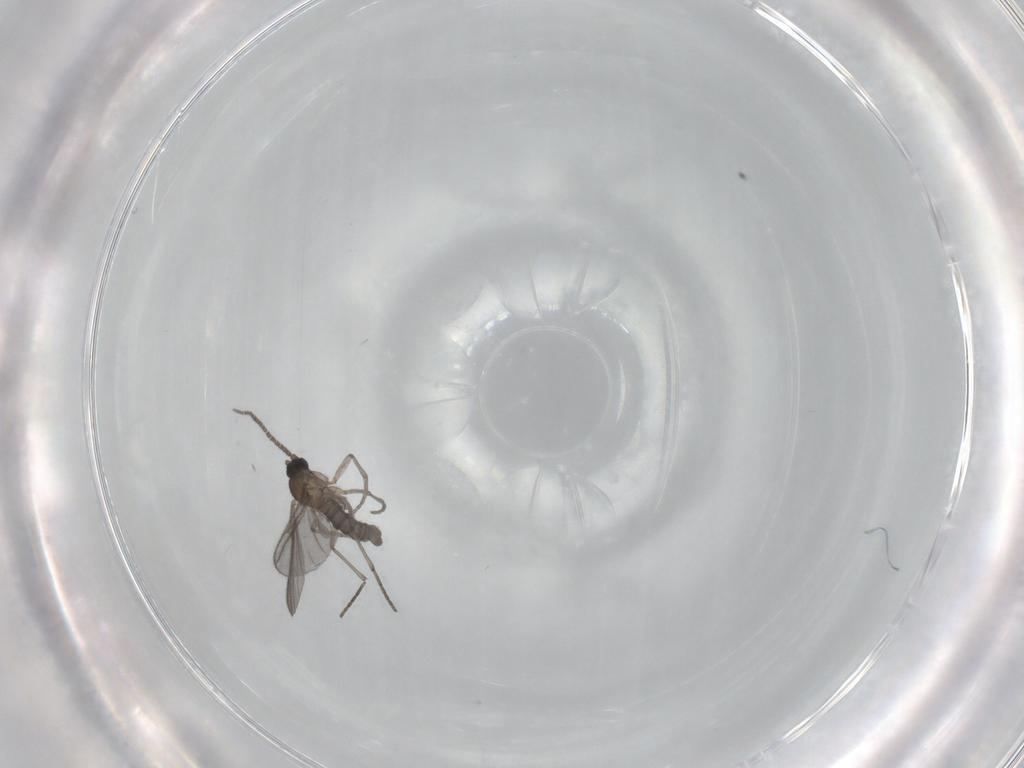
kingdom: Animalia
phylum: Arthropoda
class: Insecta
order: Diptera
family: Sciaridae
